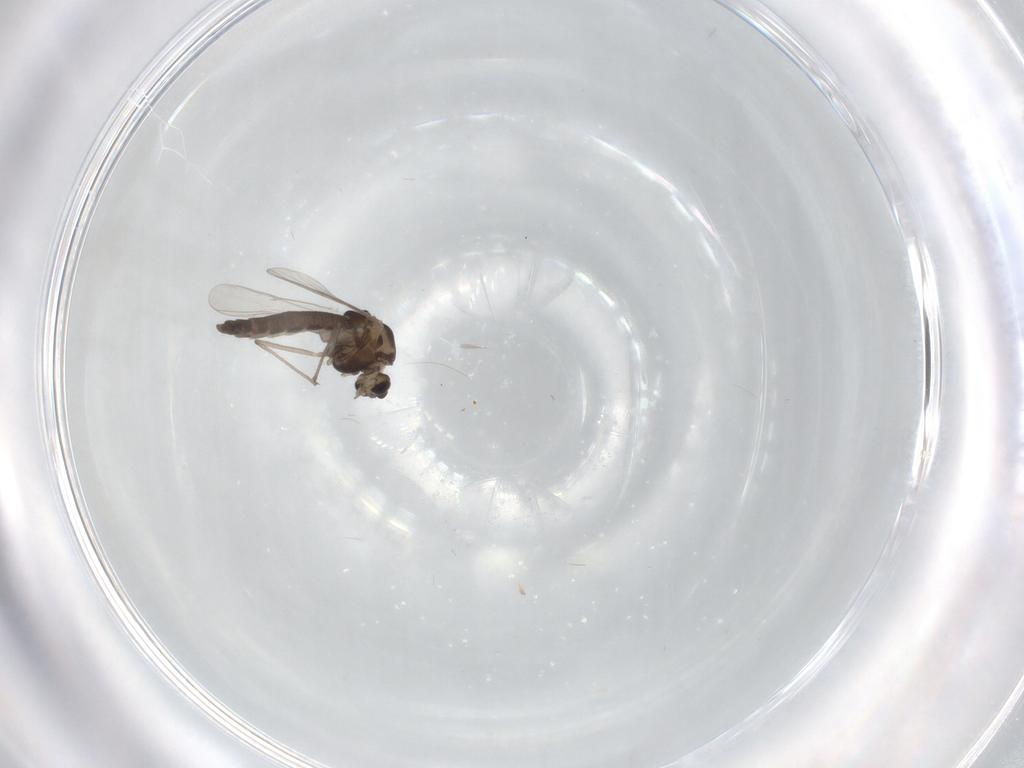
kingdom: Animalia
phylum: Arthropoda
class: Insecta
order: Diptera
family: Chironomidae
